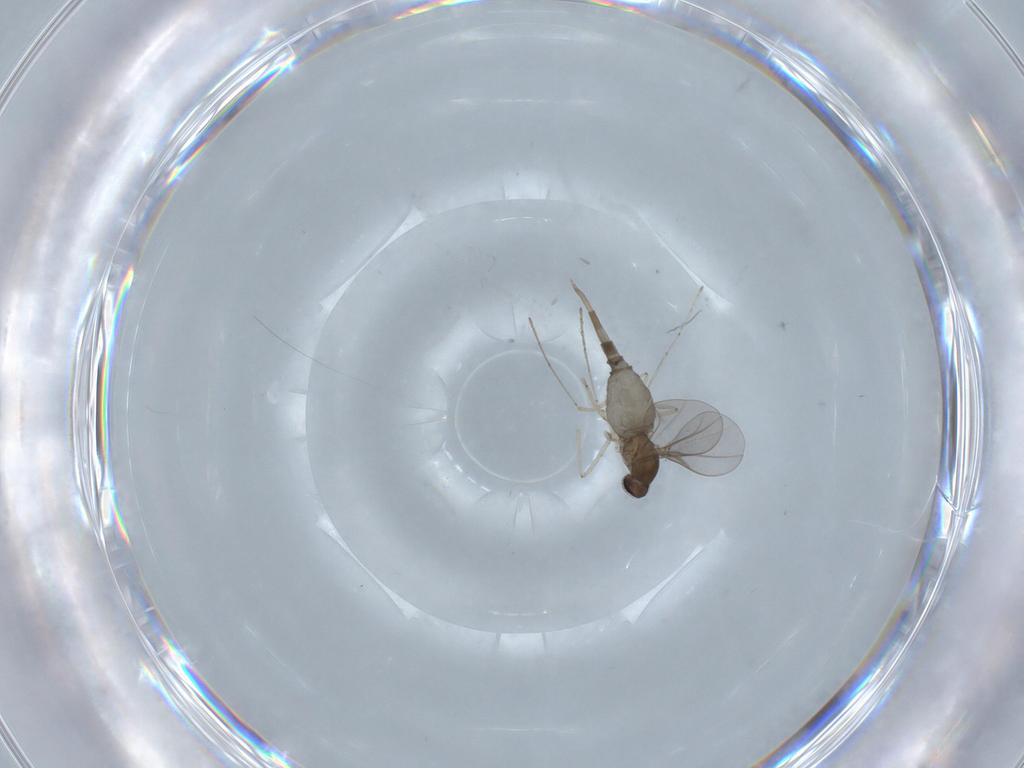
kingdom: Animalia
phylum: Arthropoda
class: Insecta
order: Diptera
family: Cecidomyiidae
